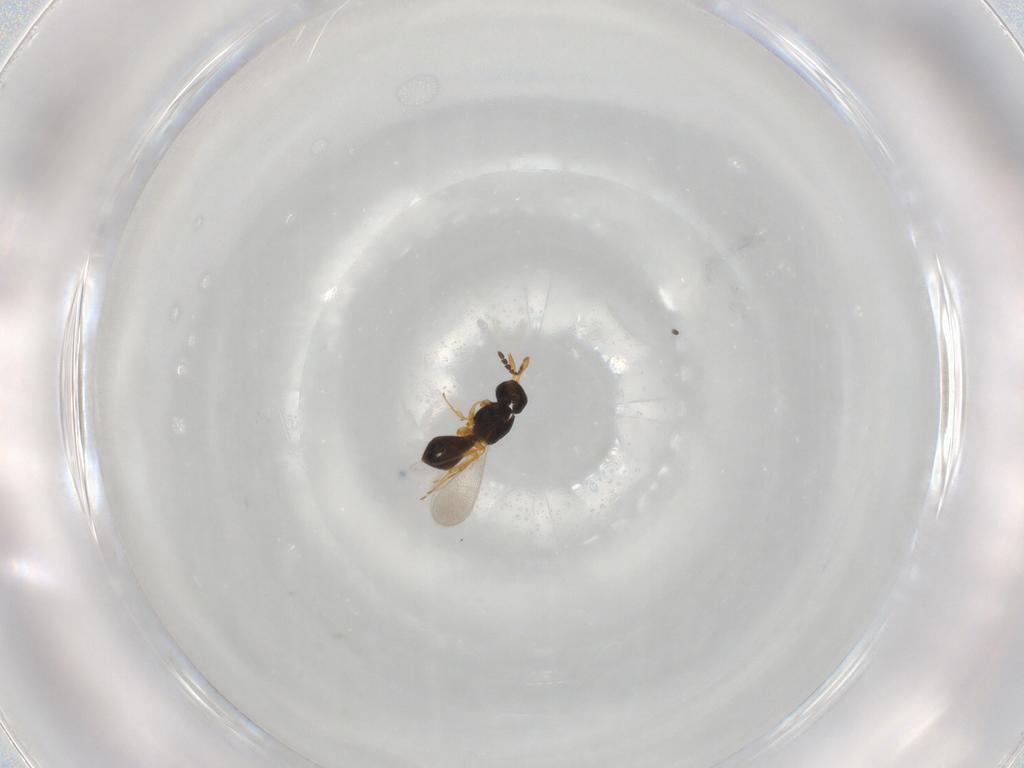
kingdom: Animalia
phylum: Arthropoda
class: Insecta
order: Hymenoptera
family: Platygastridae
